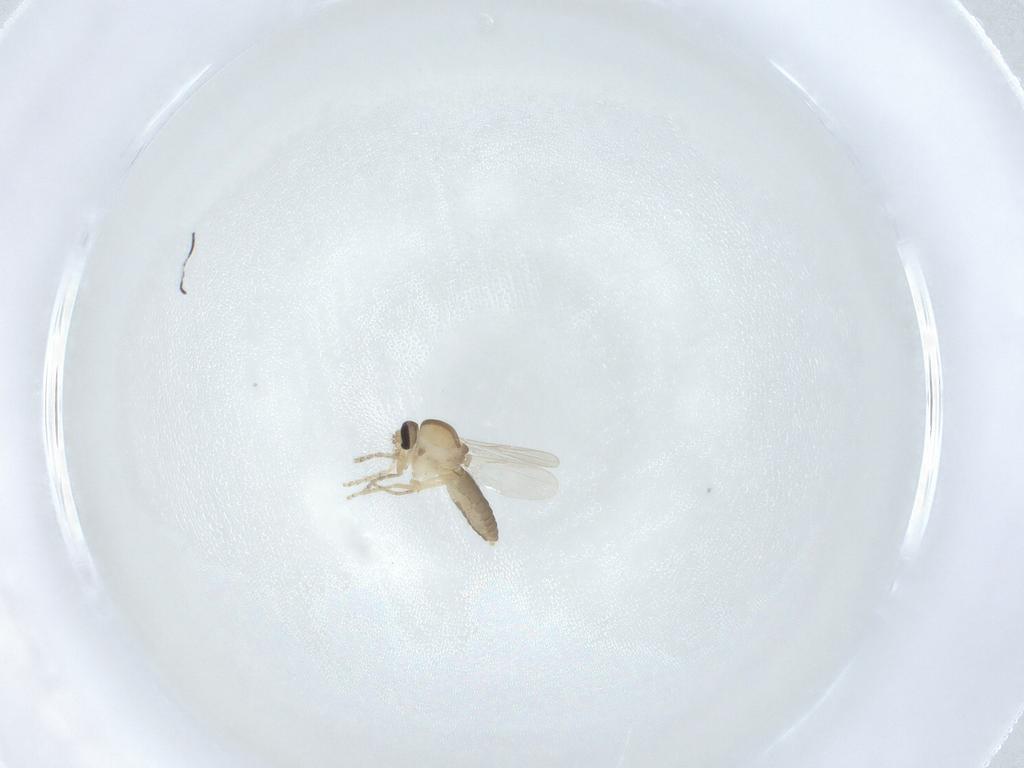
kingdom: Animalia
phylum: Arthropoda
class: Insecta
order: Diptera
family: Ceratopogonidae
